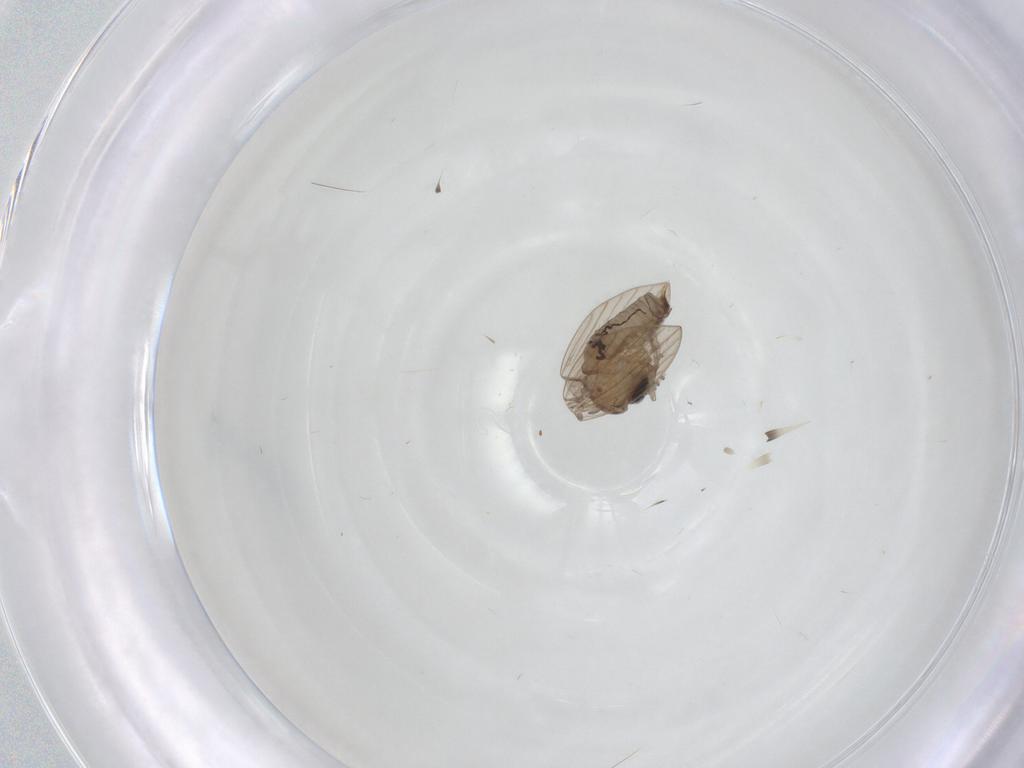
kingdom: Animalia
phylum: Arthropoda
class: Insecta
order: Diptera
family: Psychodidae
